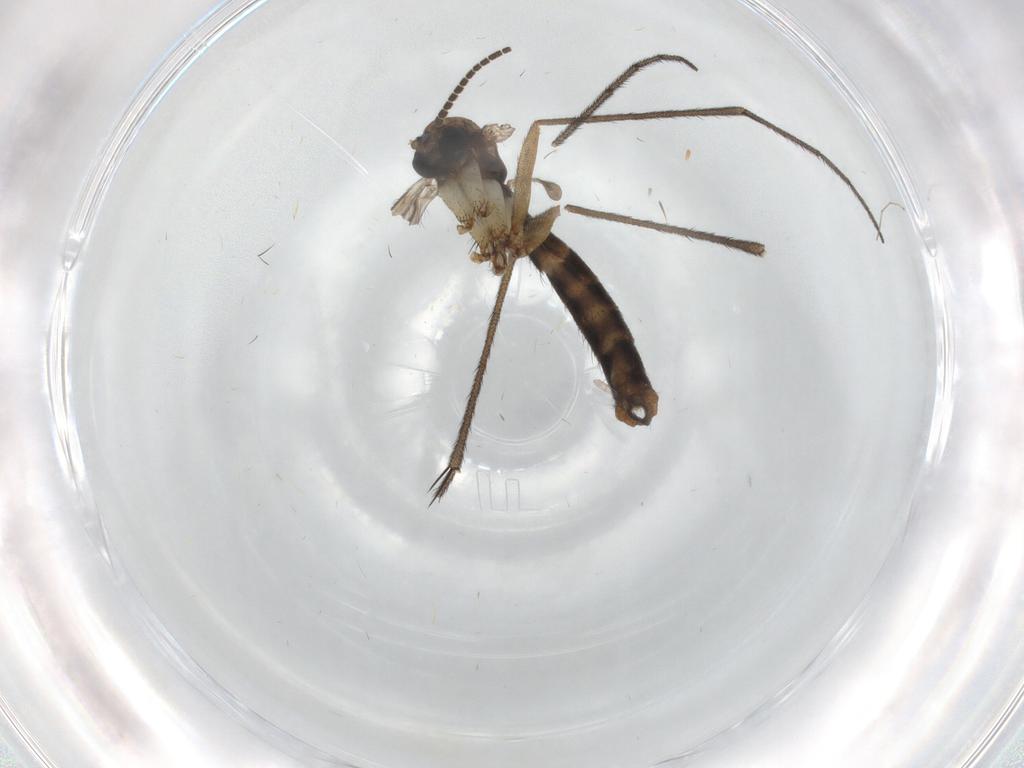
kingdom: Animalia
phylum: Arthropoda
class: Insecta
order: Diptera
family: Ditomyiidae
